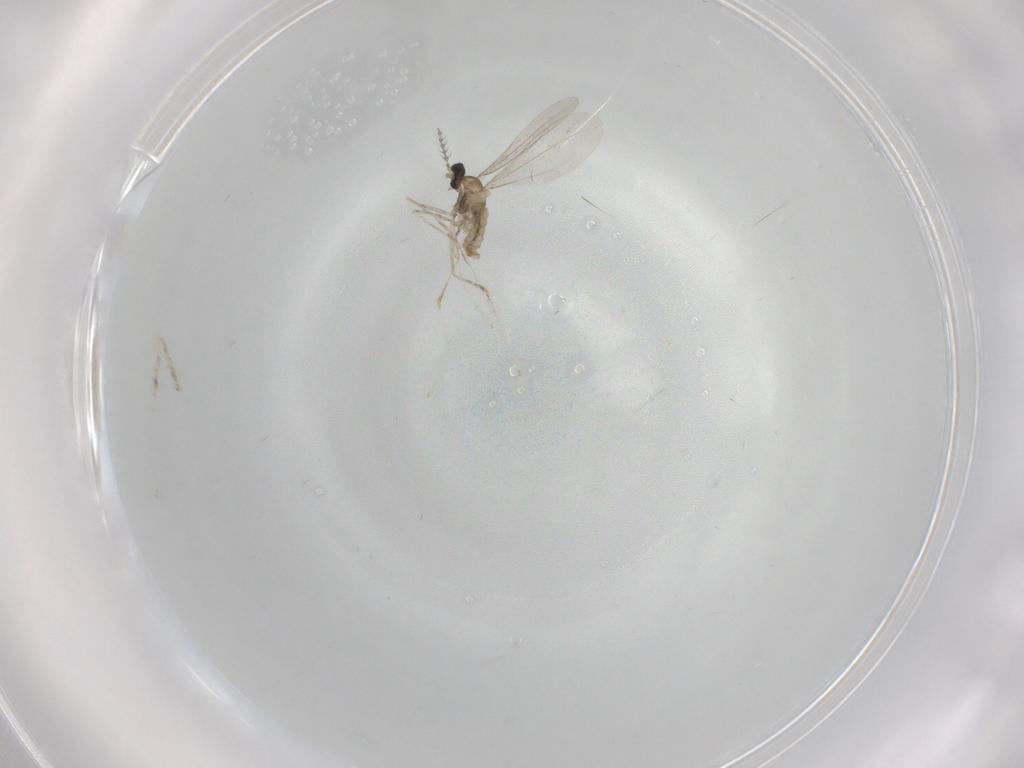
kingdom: Animalia
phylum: Arthropoda
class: Insecta
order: Diptera
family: Cecidomyiidae
